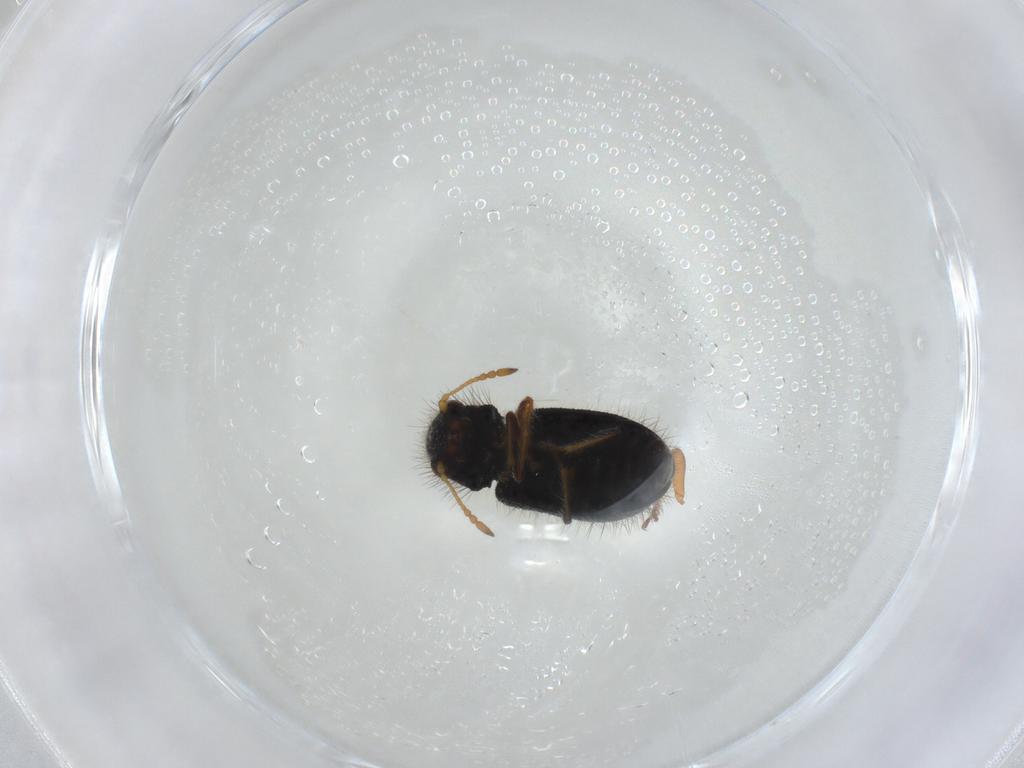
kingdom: Animalia
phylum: Arthropoda
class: Insecta
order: Coleoptera
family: Cleridae
